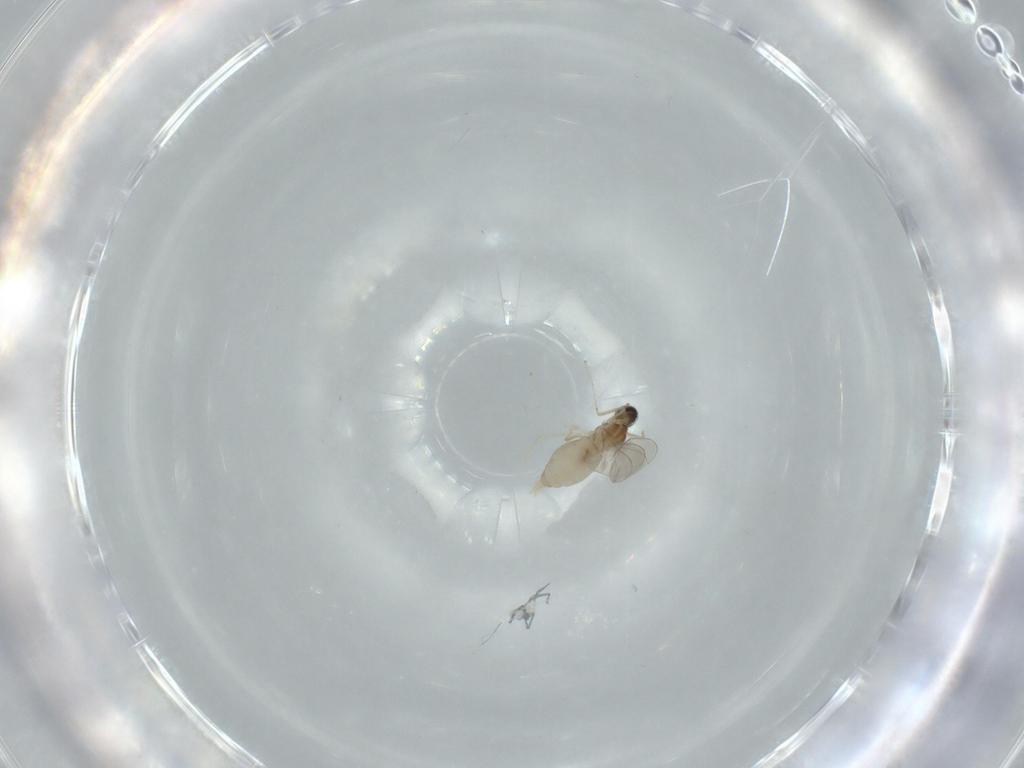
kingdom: Animalia
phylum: Arthropoda
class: Insecta
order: Diptera
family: Cecidomyiidae
